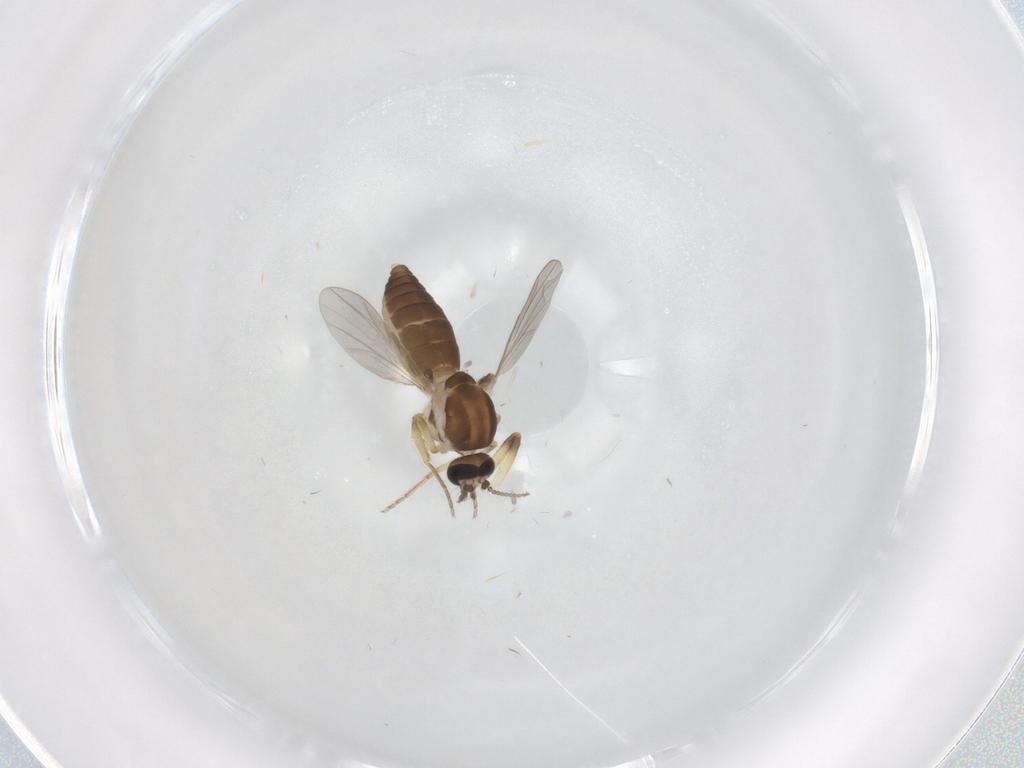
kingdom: Animalia
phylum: Arthropoda
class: Insecta
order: Diptera
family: Ceratopogonidae
